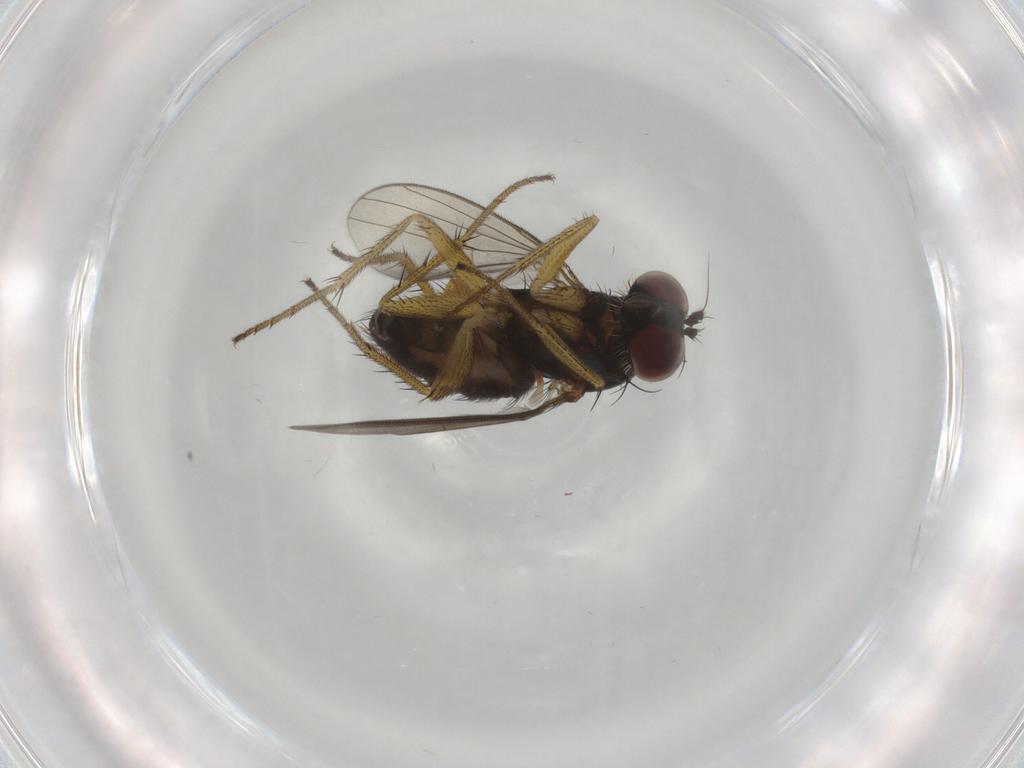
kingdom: Animalia
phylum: Arthropoda
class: Insecta
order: Diptera
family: Dolichopodidae
